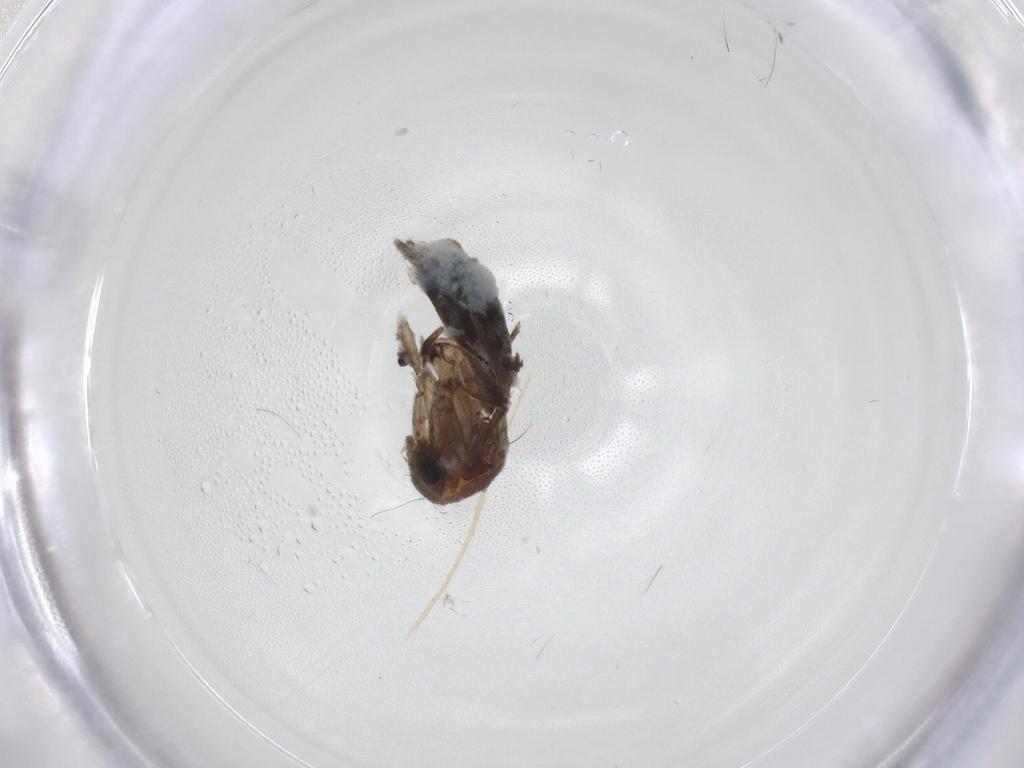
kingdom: Animalia
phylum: Arthropoda
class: Insecta
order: Diptera
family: Mycetophilidae
